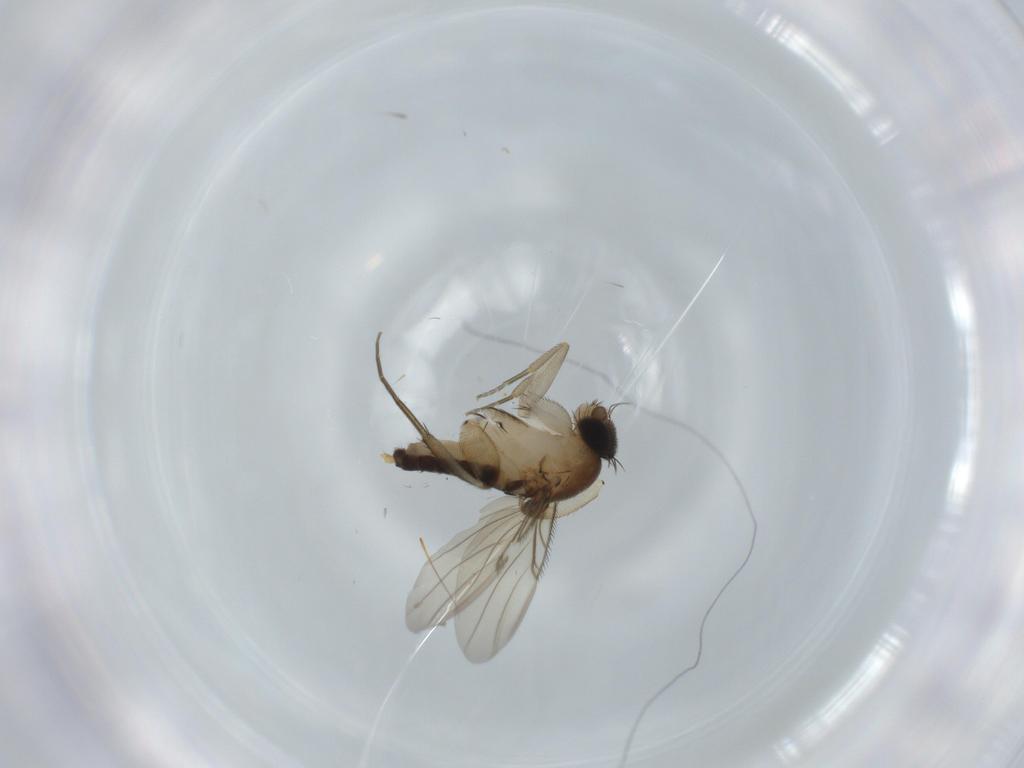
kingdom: Animalia
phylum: Arthropoda
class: Insecta
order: Diptera
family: Phoridae
